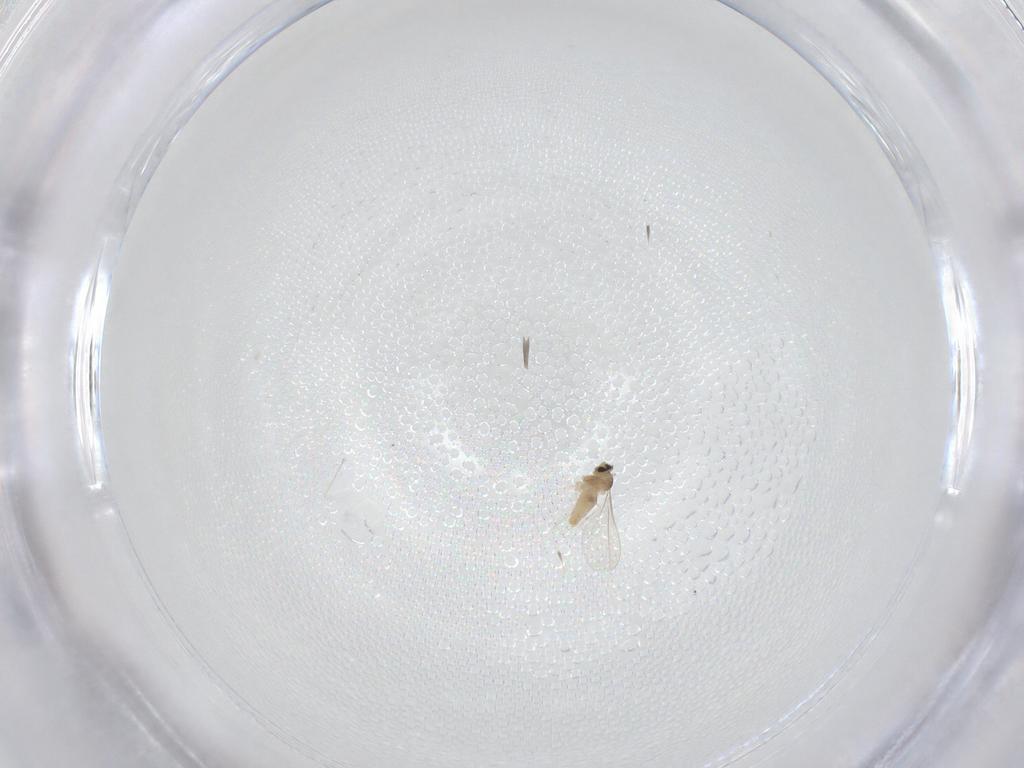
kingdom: Animalia
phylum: Arthropoda
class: Insecta
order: Diptera
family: Cecidomyiidae
